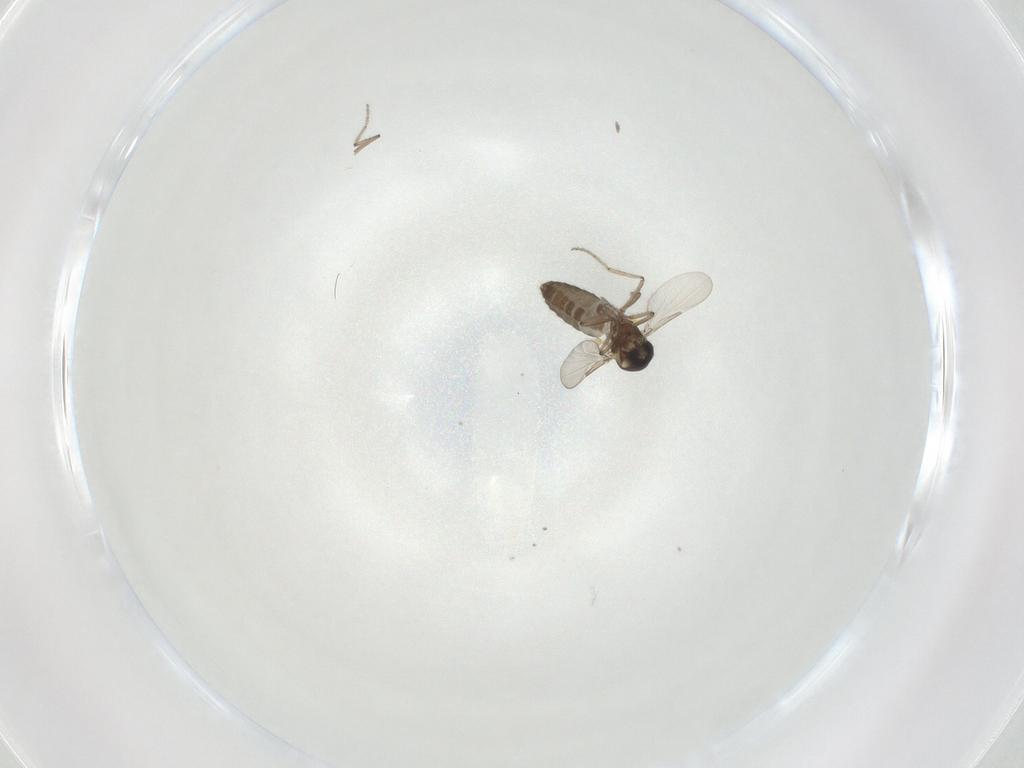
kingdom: Animalia
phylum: Arthropoda
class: Insecta
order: Diptera
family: Ceratopogonidae
